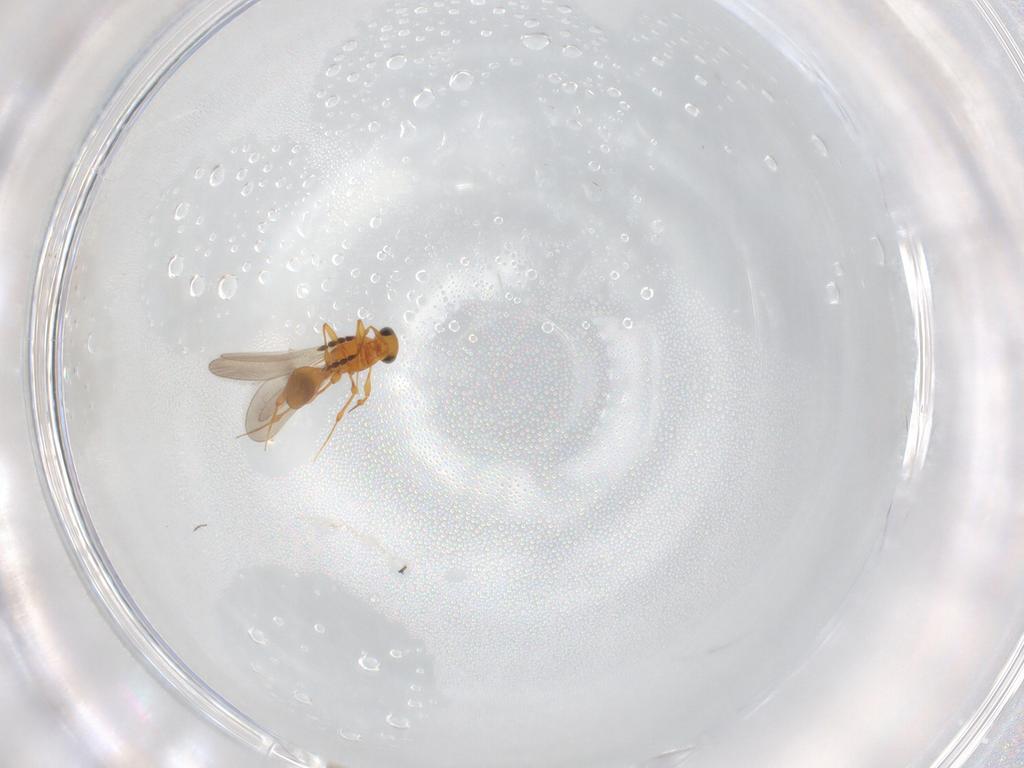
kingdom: Animalia
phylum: Arthropoda
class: Insecta
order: Hymenoptera
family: Platygastridae
